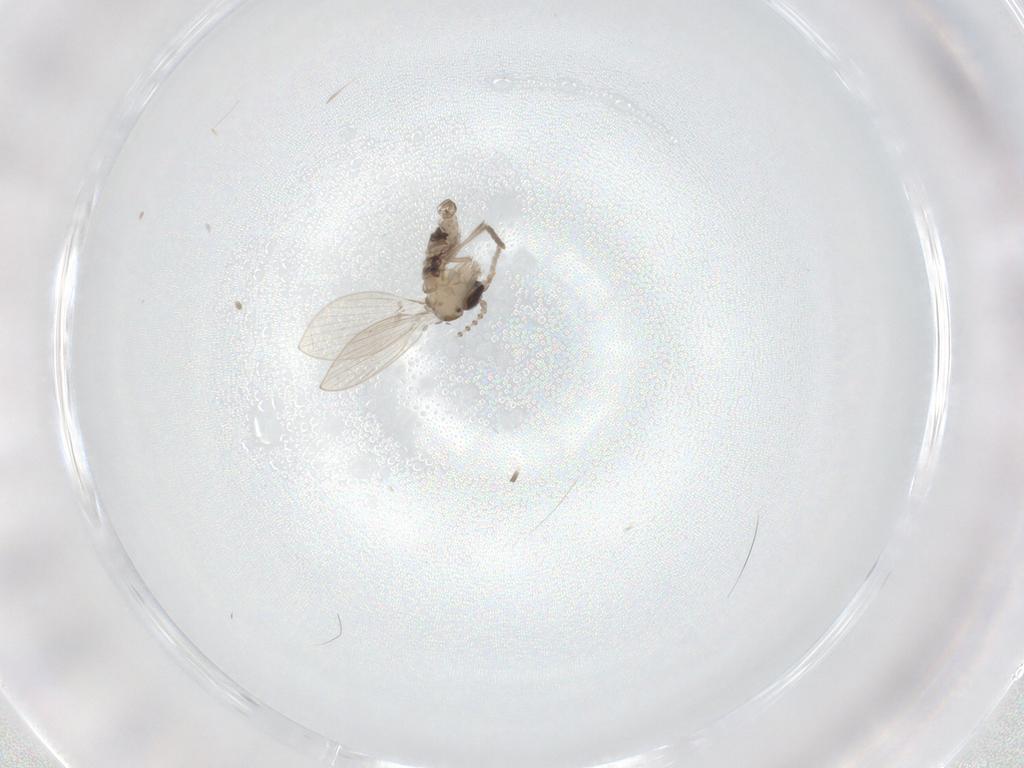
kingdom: Animalia
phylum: Arthropoda
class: Insecta
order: Diptera
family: Psychodidae
